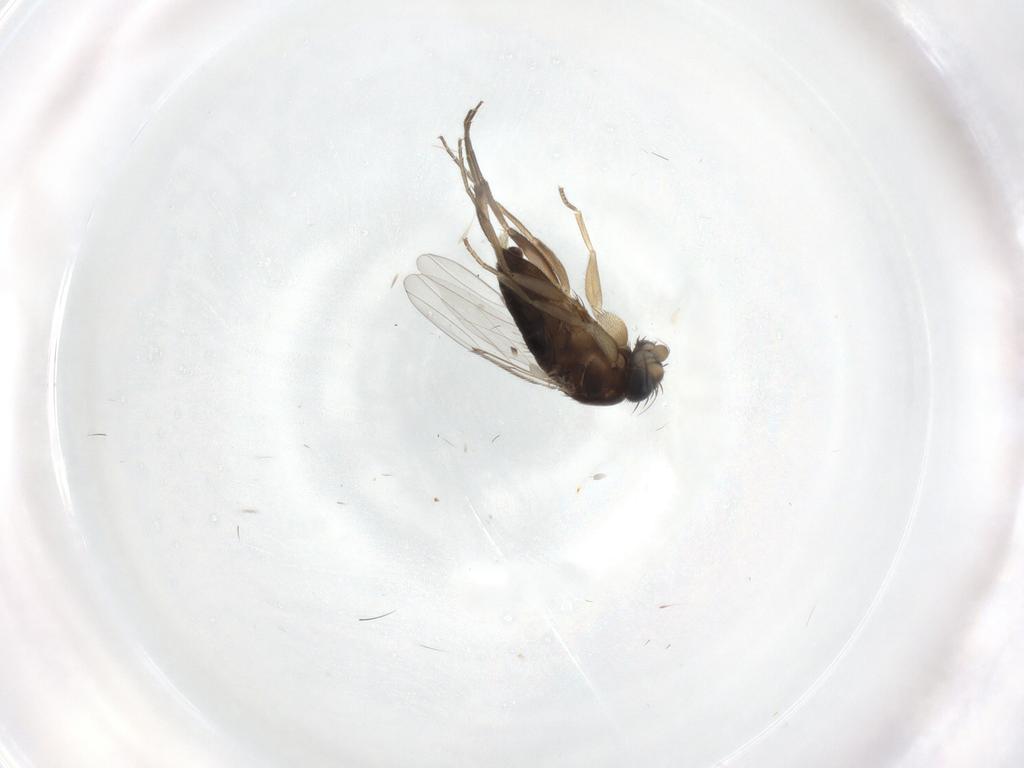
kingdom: Animalia
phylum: Arthropoda
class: Insecta
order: Diptera
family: Phoridae
